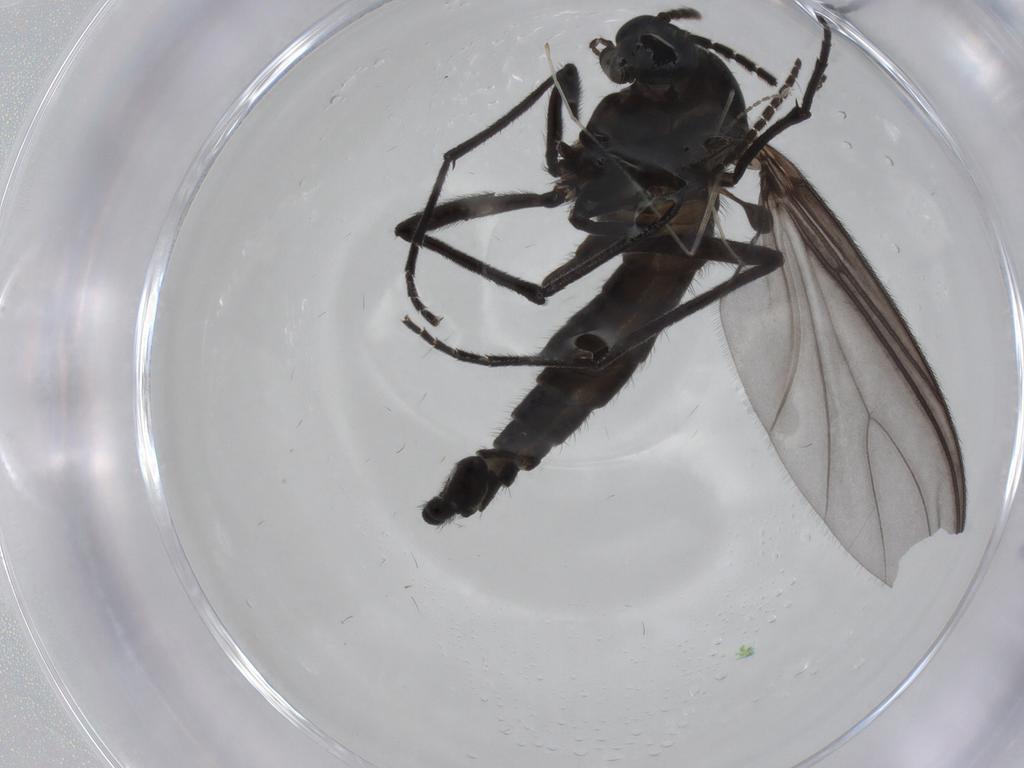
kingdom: Animalia
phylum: Arthropoda
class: Insecta
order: Diptera
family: Sciaridae
